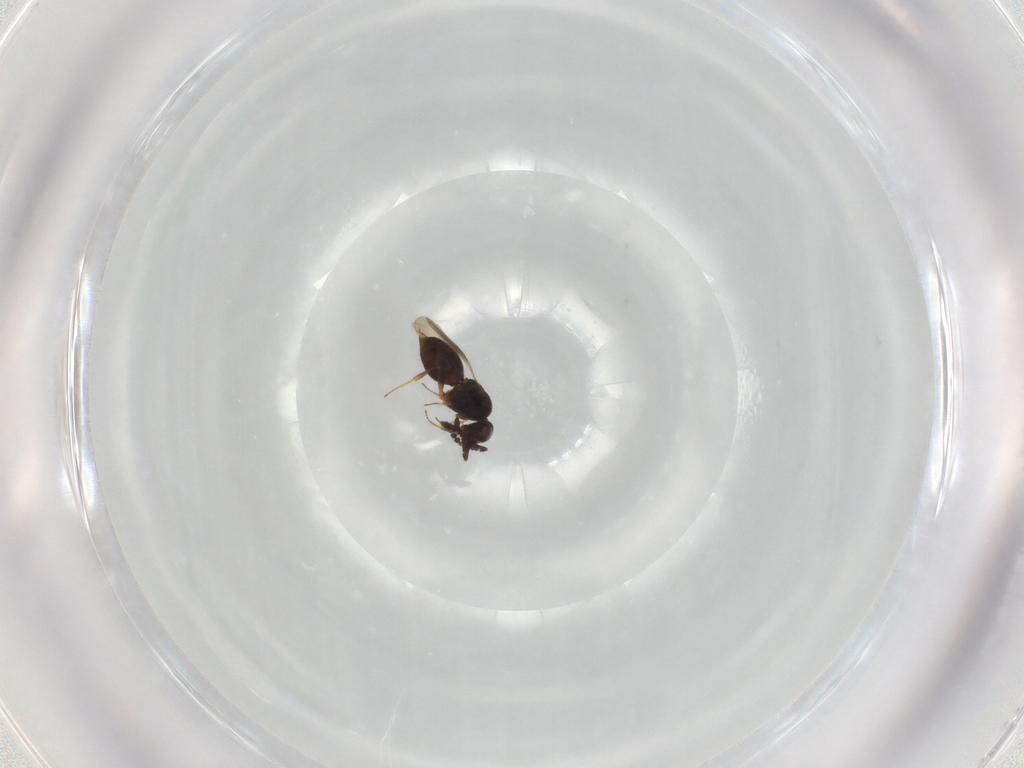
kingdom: Animalia
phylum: Arthropoda
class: Insecta
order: Hymenoptera
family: Ceraphronidae
